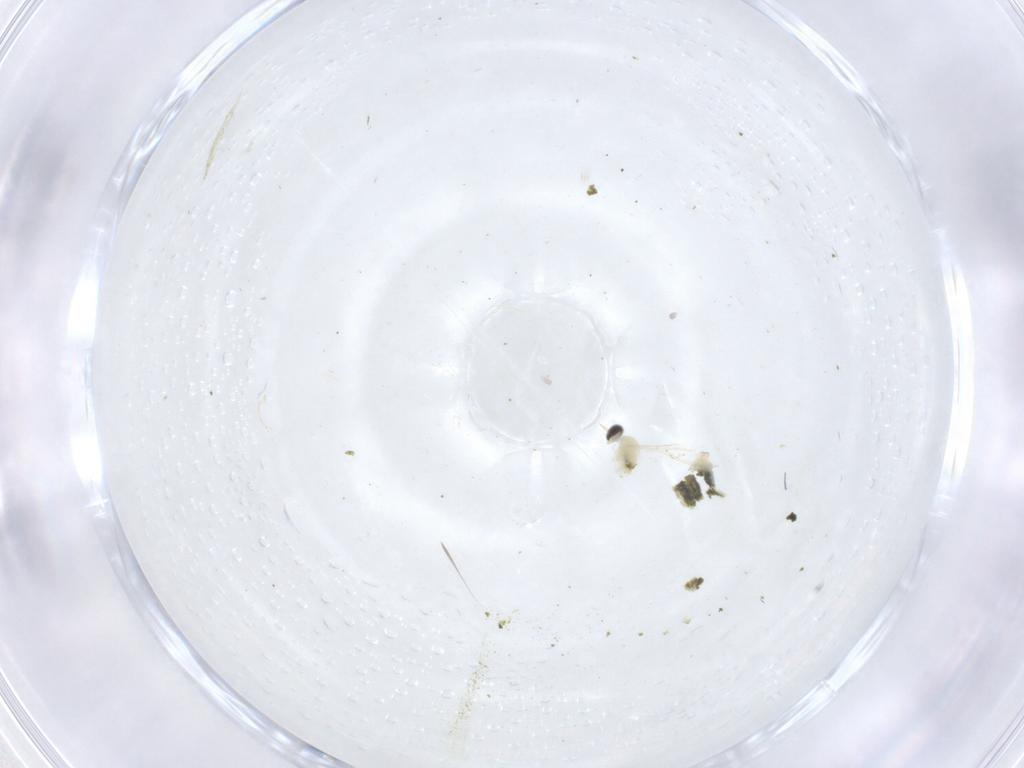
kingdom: Animalia
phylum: Arthropoda
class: Insecta
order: Diptera
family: Cecidomyiidae
